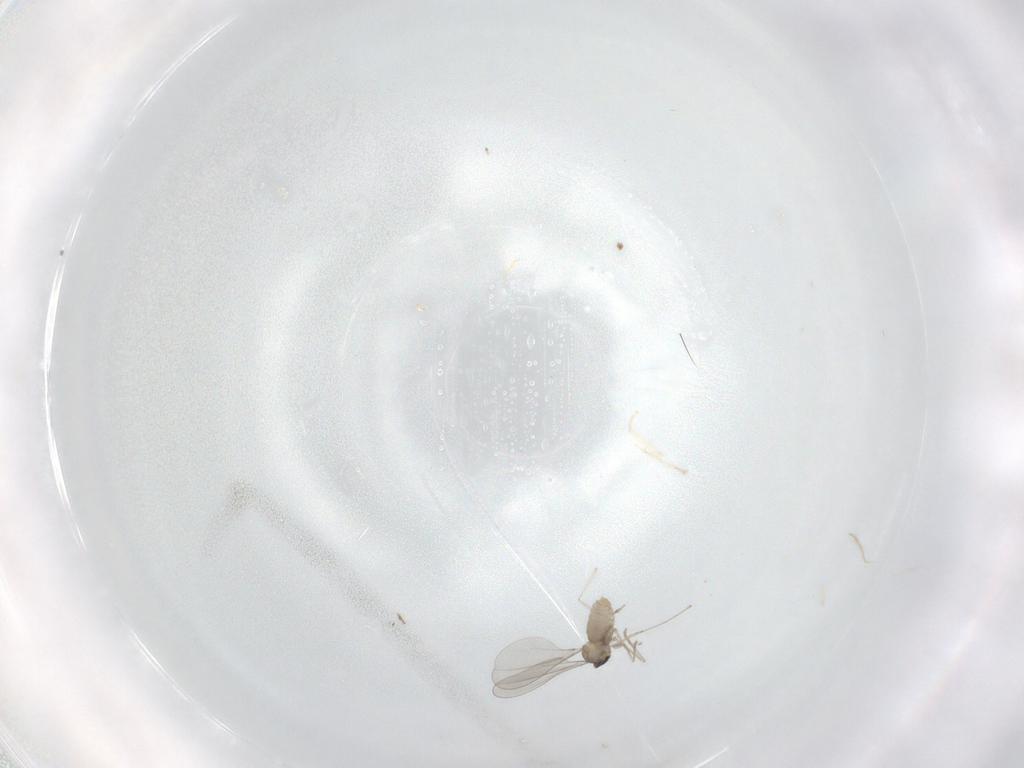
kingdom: Animalia
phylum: Arthropoda
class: Insecta
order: Diptera
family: Cecidomyiidae
